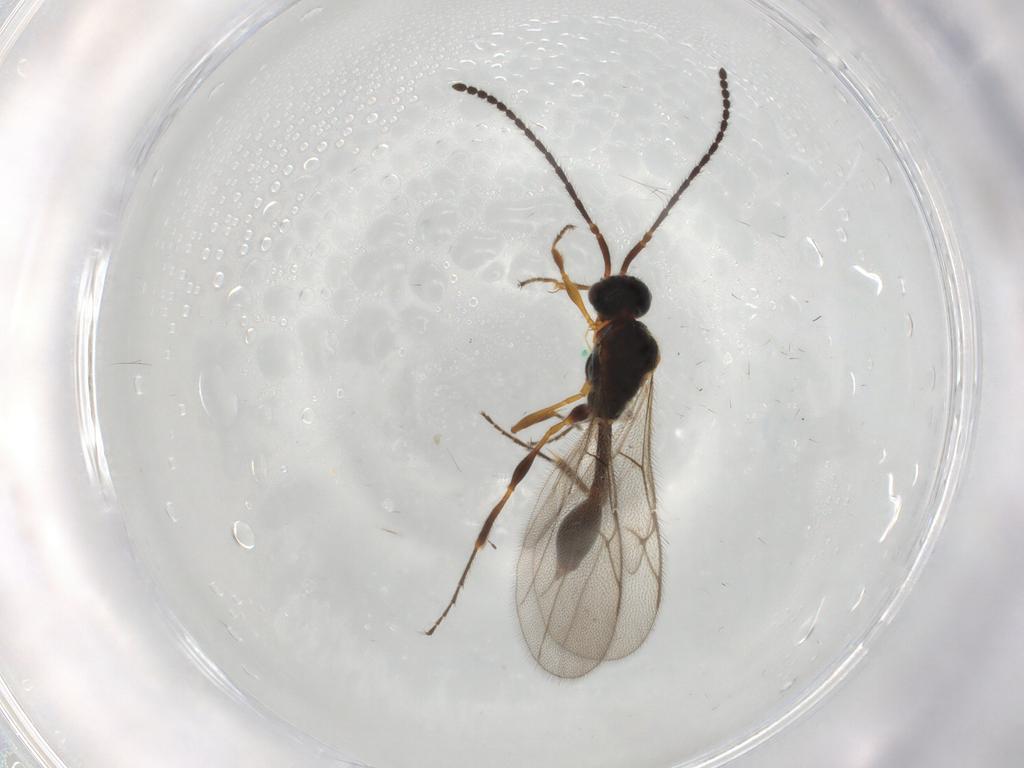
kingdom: Animalia
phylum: Arthropoda
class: Insecta
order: Hymenoptera
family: Diapriidae
